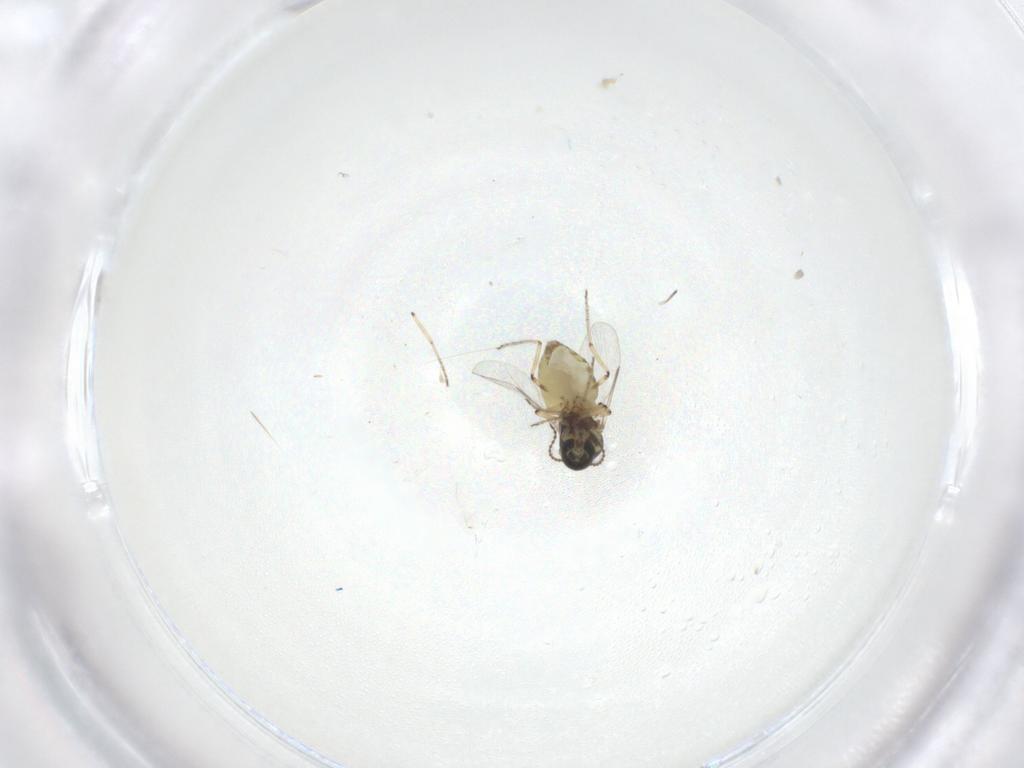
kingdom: Animalia
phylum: Arthropoda
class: Insecta
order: Diptera
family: Ceratopogonidae
